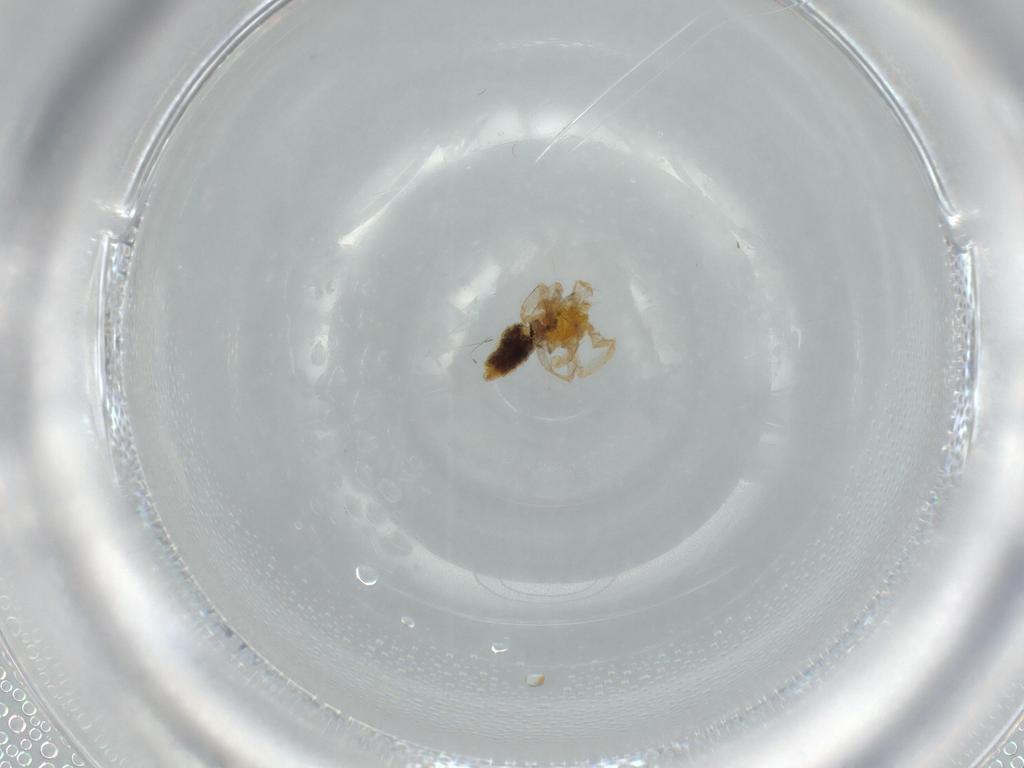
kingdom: Animalia
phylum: Arthropoda
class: Arachnida
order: Araneae
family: Anyphaenidae
